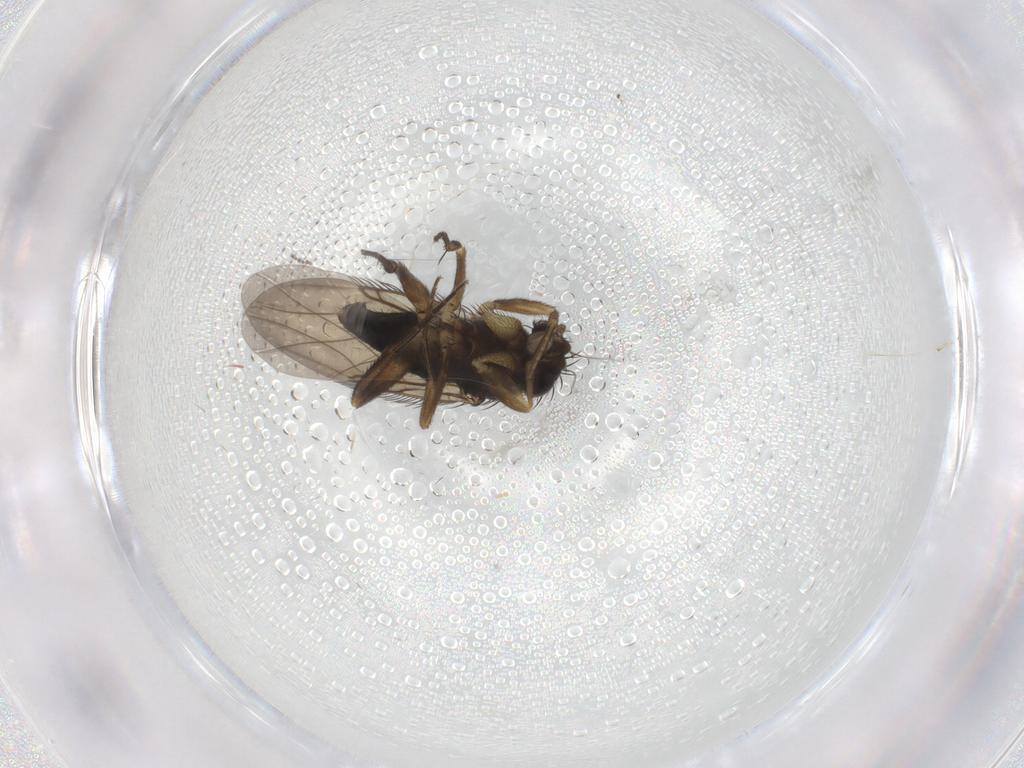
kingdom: Animalia
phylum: Arthropoda
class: Insecta
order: Diptera
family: Phoridae
